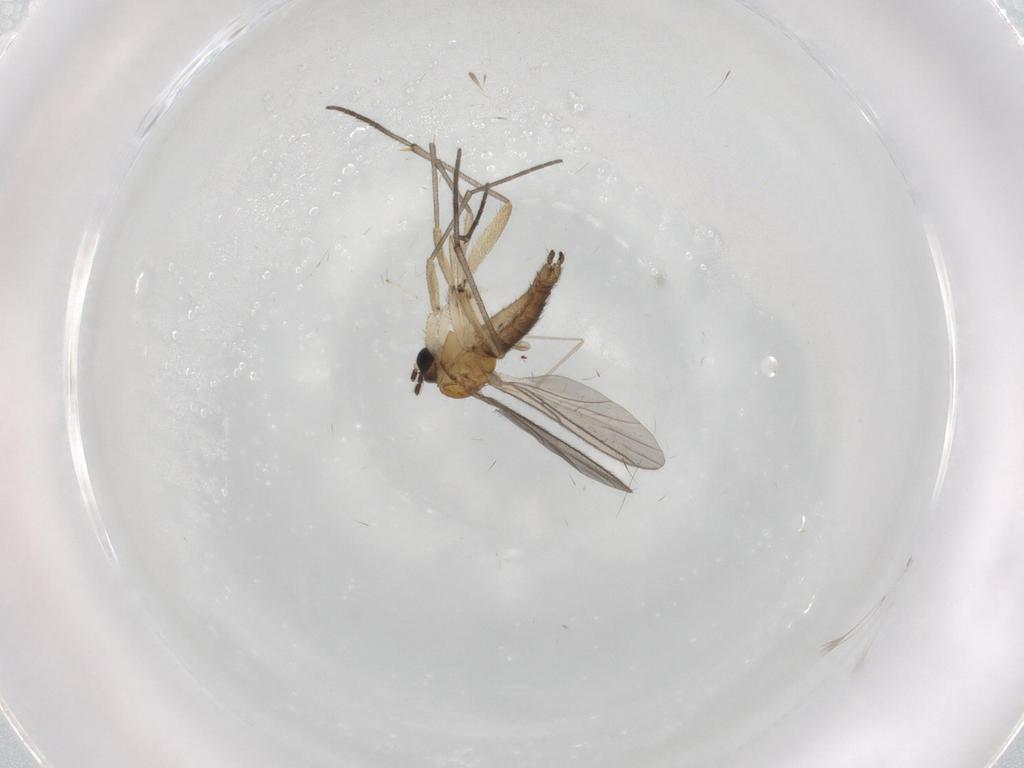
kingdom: Animalia
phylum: Arthropoda
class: Insecta
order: Diptera
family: Sciaridae
